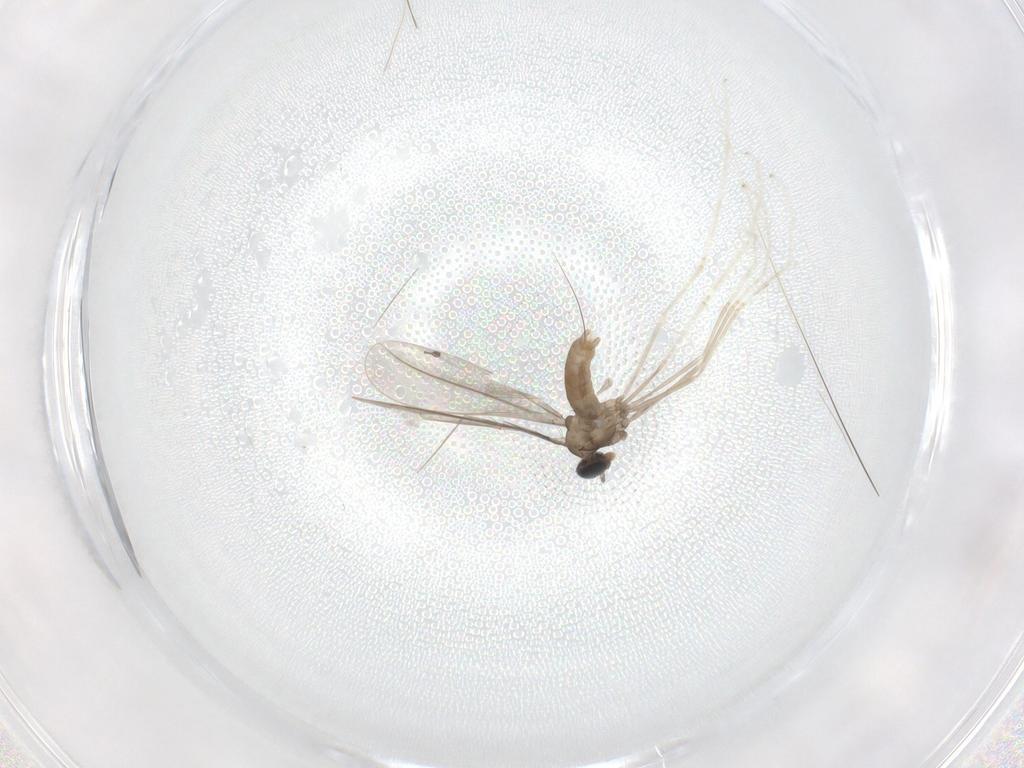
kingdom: Animalia
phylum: Arthropoda
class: Insecta
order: Diptera
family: Cecidomyiidae
